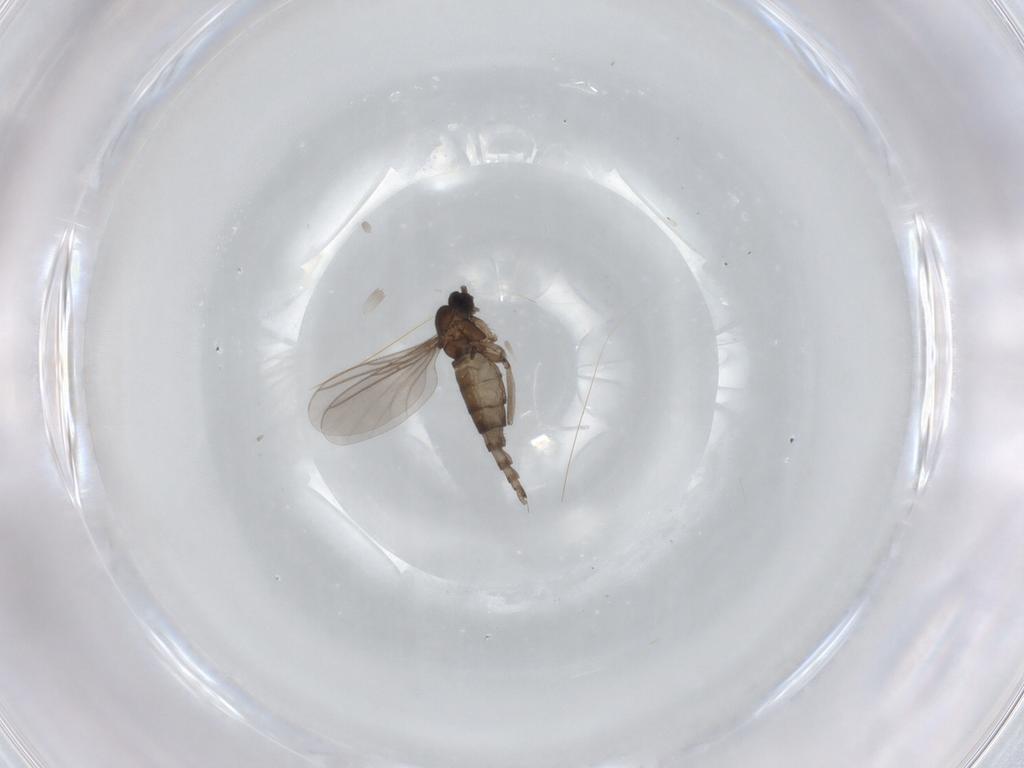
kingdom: Animalia
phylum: Arthropoda
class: Insecta
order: Diptera
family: Sciaridae
